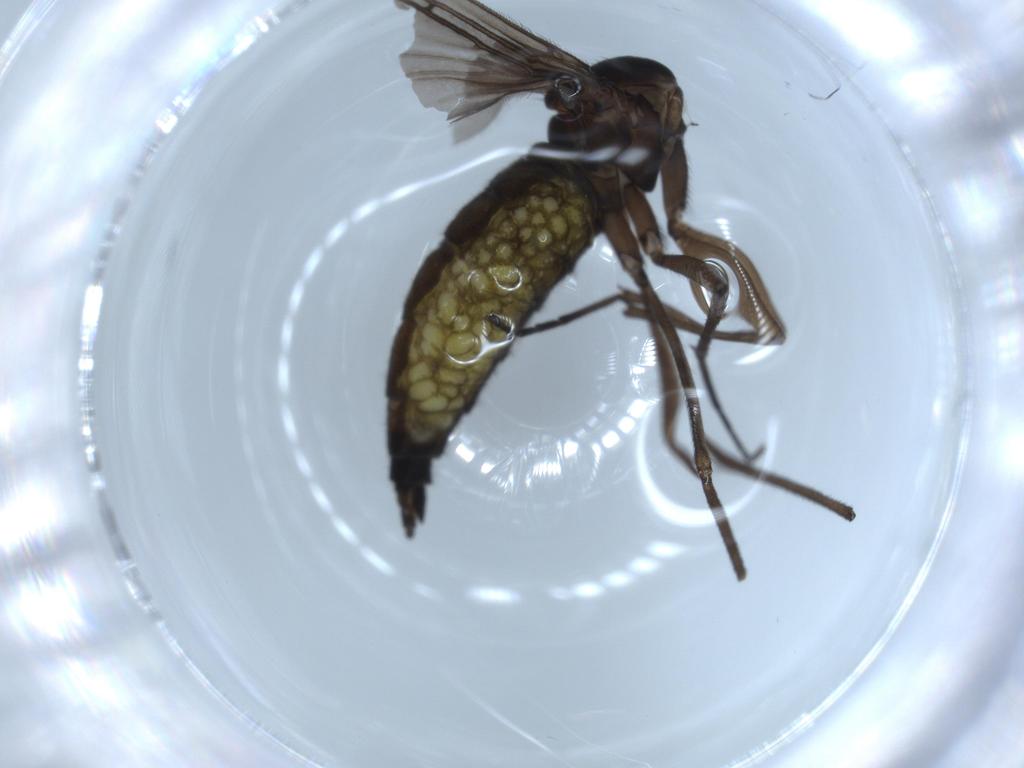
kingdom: Animalia
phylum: Arthropoda
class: Insecta
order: Diptera
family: Sciaridae
